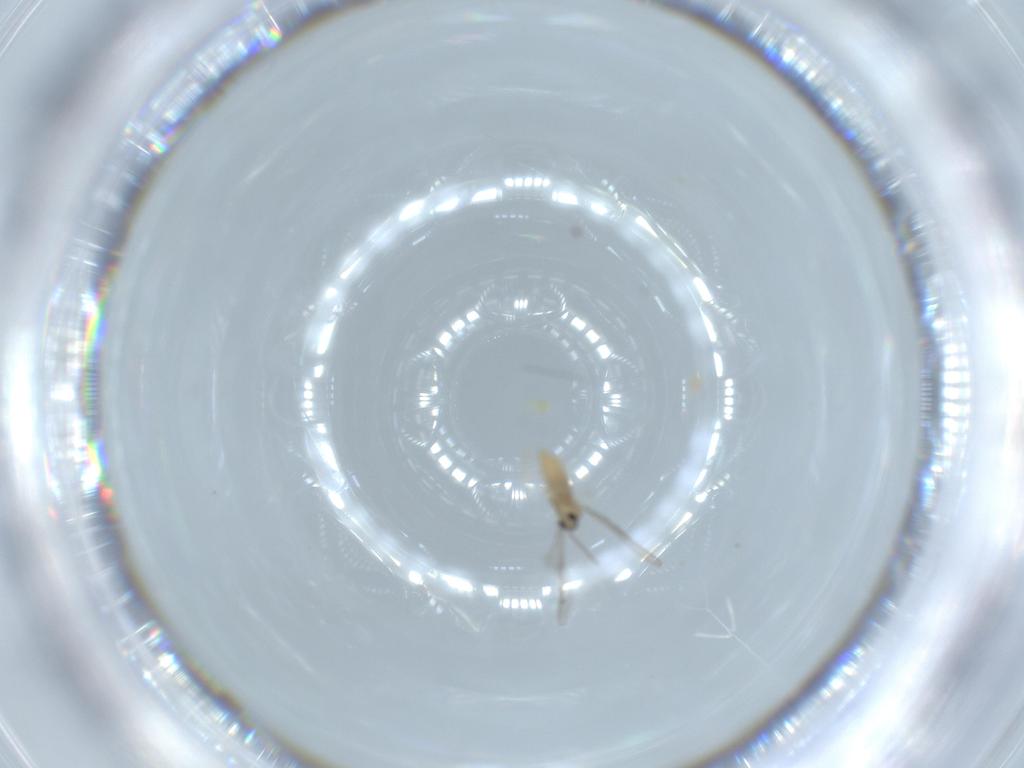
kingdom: Animalia
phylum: Arthropoda
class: Insecta
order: Diptera
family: Cecidomyiidae
